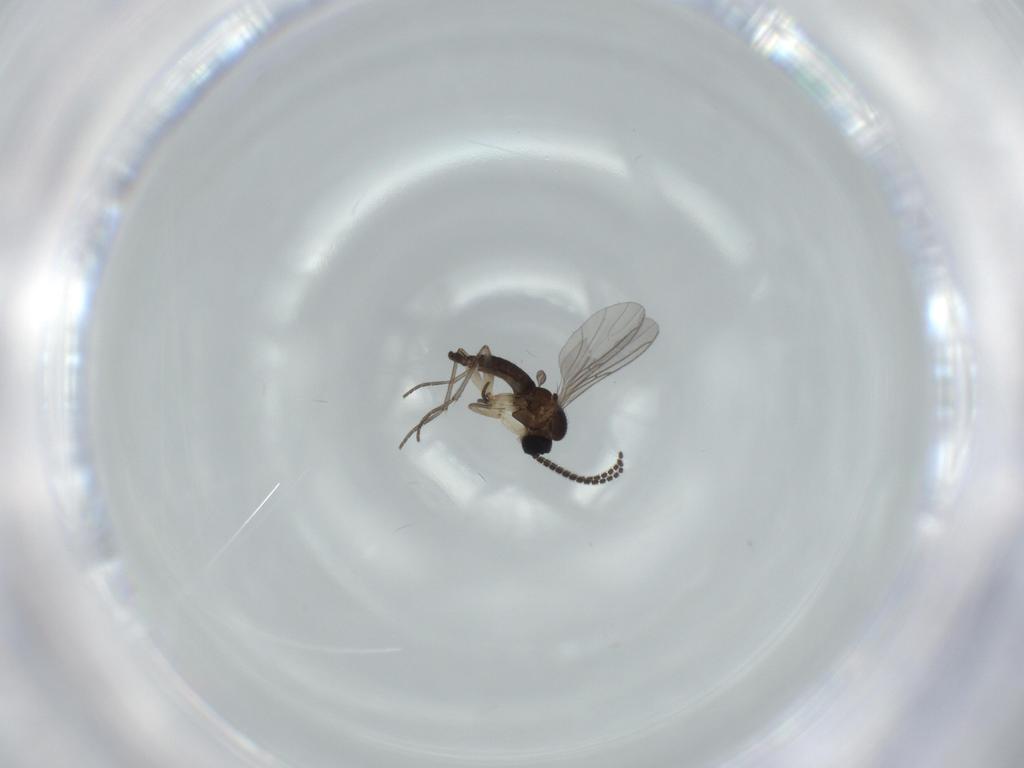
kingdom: Animalia
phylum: Arthropoda
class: Insecta
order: Diptera
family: Sciaridae
